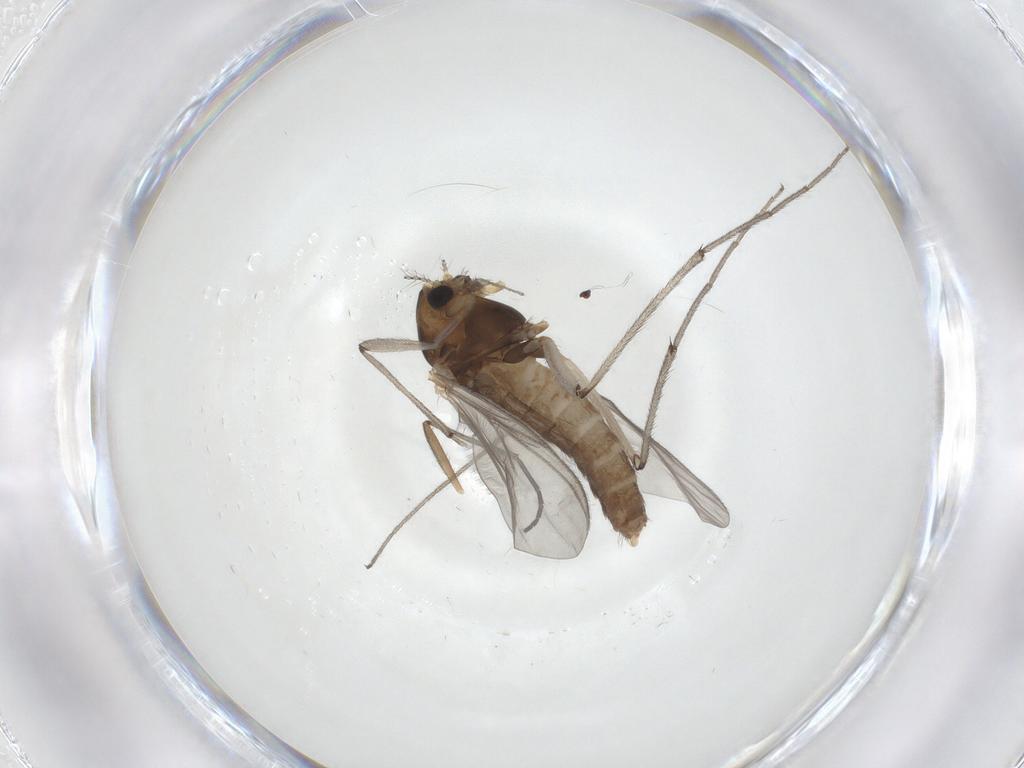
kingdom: Animalia
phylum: Arthropoda
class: Insecta
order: Diptera
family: Chironomidae
